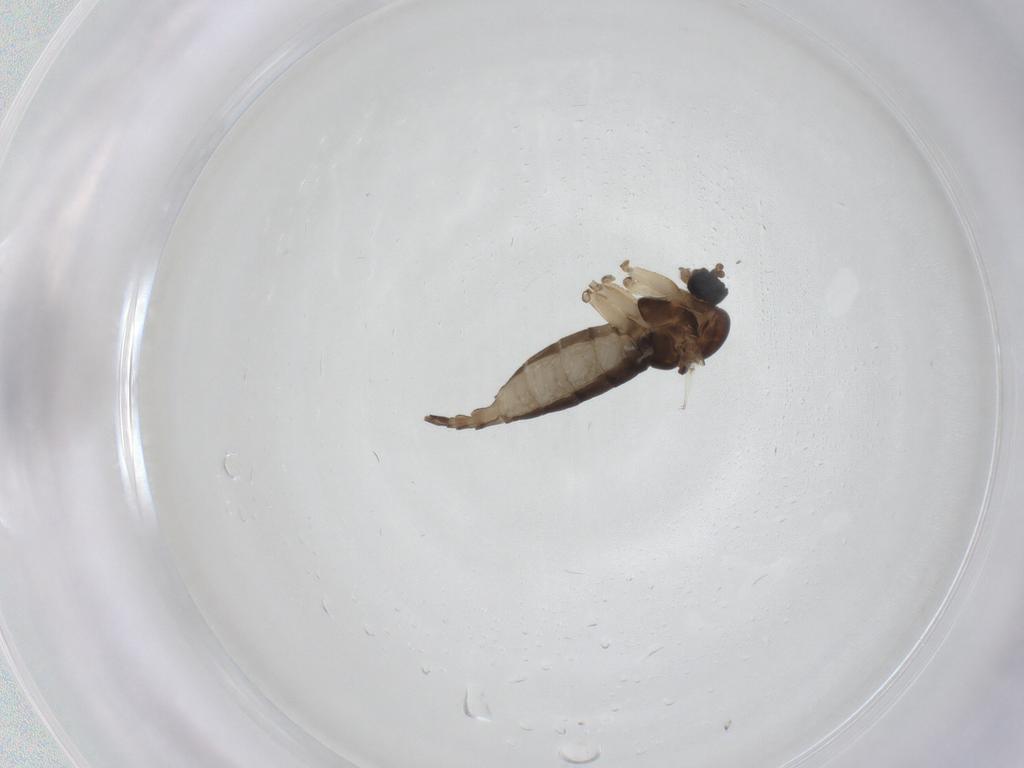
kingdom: Animalia
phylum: Arthropoda
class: Insecta
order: Diptera
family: Sciaridae
